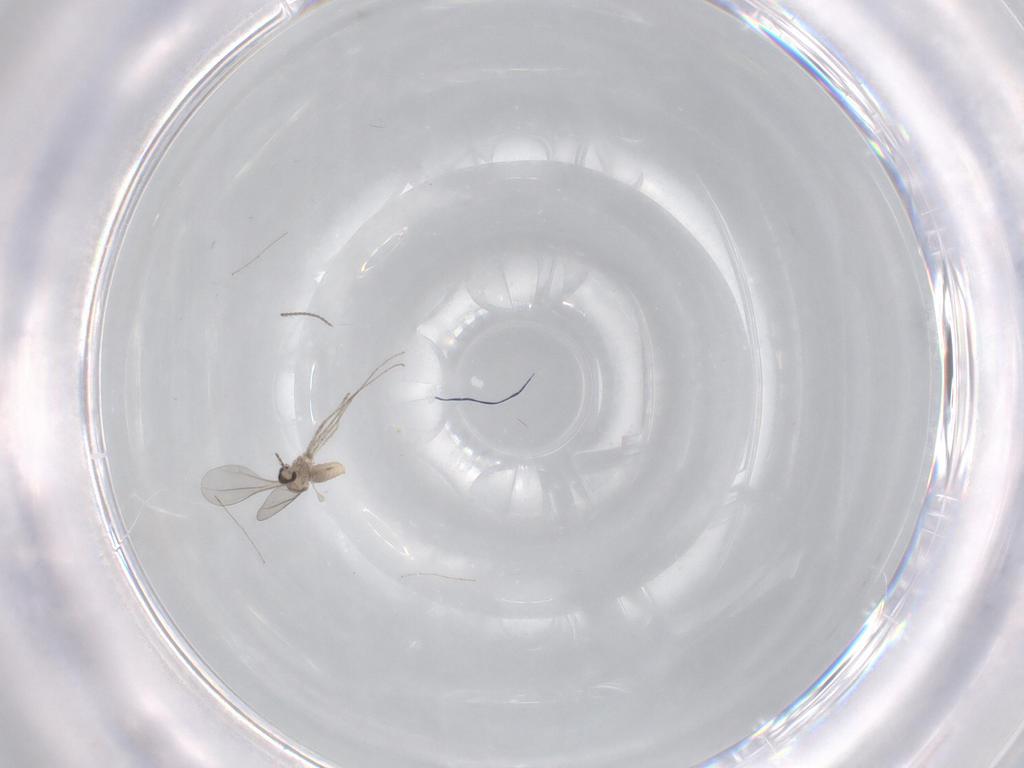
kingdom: Animalia
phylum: Arthropoda
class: Insecta
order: Diptera
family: Cecidomyiidae
